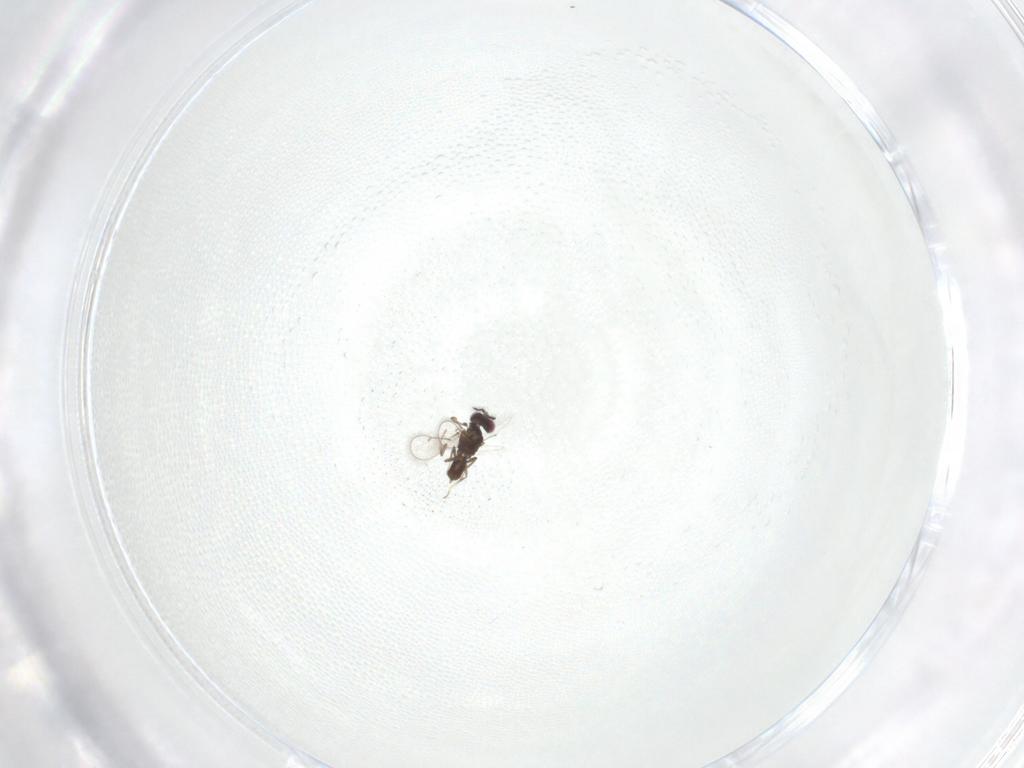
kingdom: Animalia
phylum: Arthropoda
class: Insecta
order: Hymenoptera
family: Eulophidae
